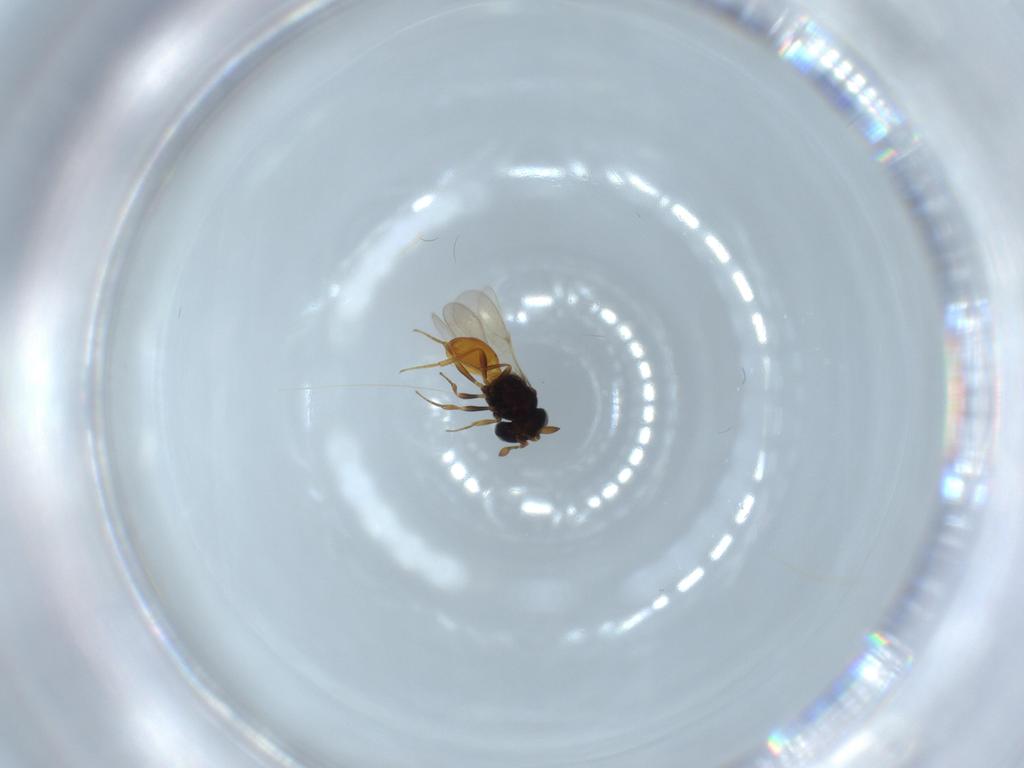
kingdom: Animalia
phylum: Arthropoda
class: Insecta
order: Hymenoptera
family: Scelionidae
